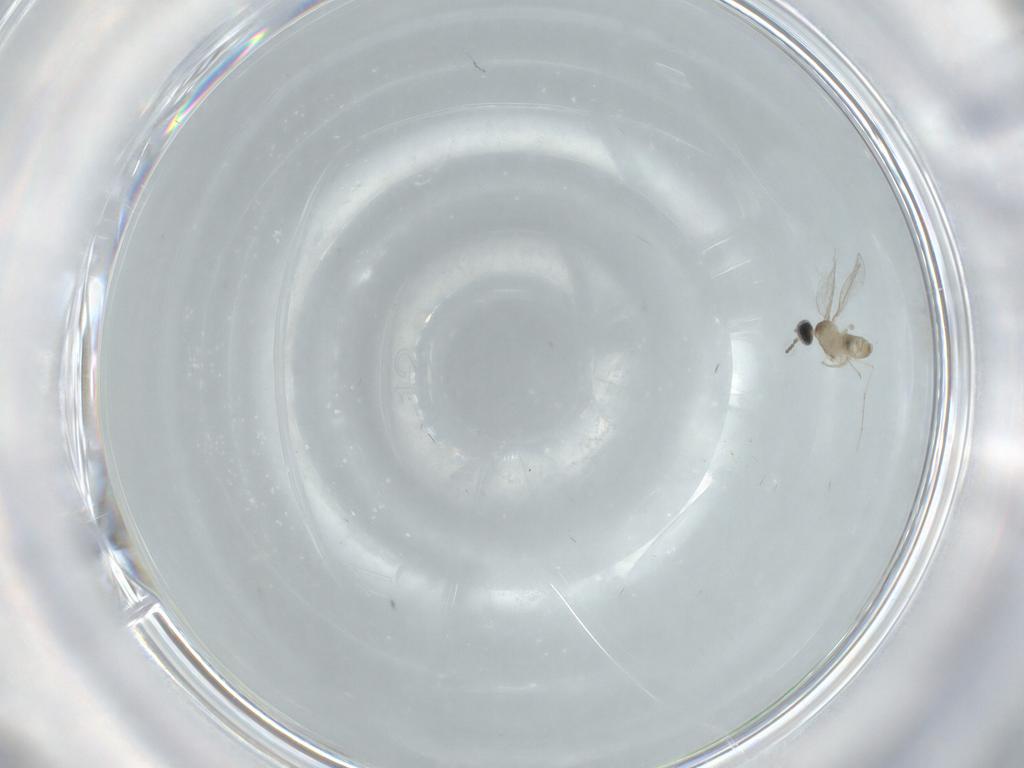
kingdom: Animalia
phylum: Arthropoda
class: Insecta
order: Diptera
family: Cecidomyiidae
